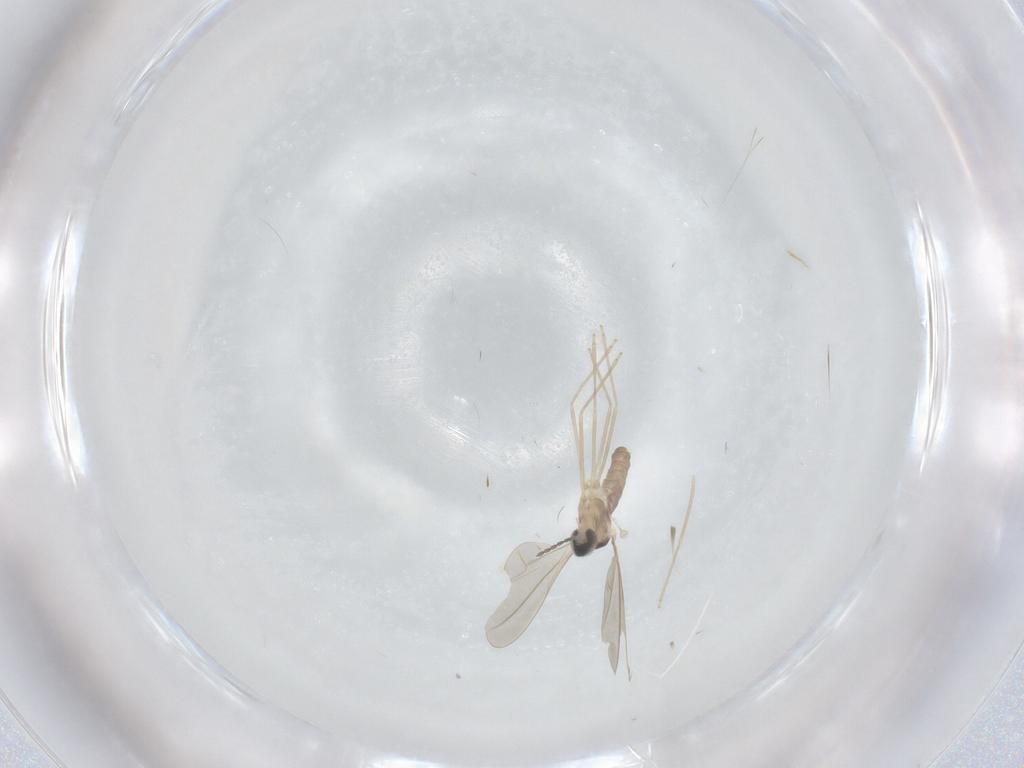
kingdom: Animalia
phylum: Arthropoda
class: Insecta
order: Diptera
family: Cecidomyiidae
